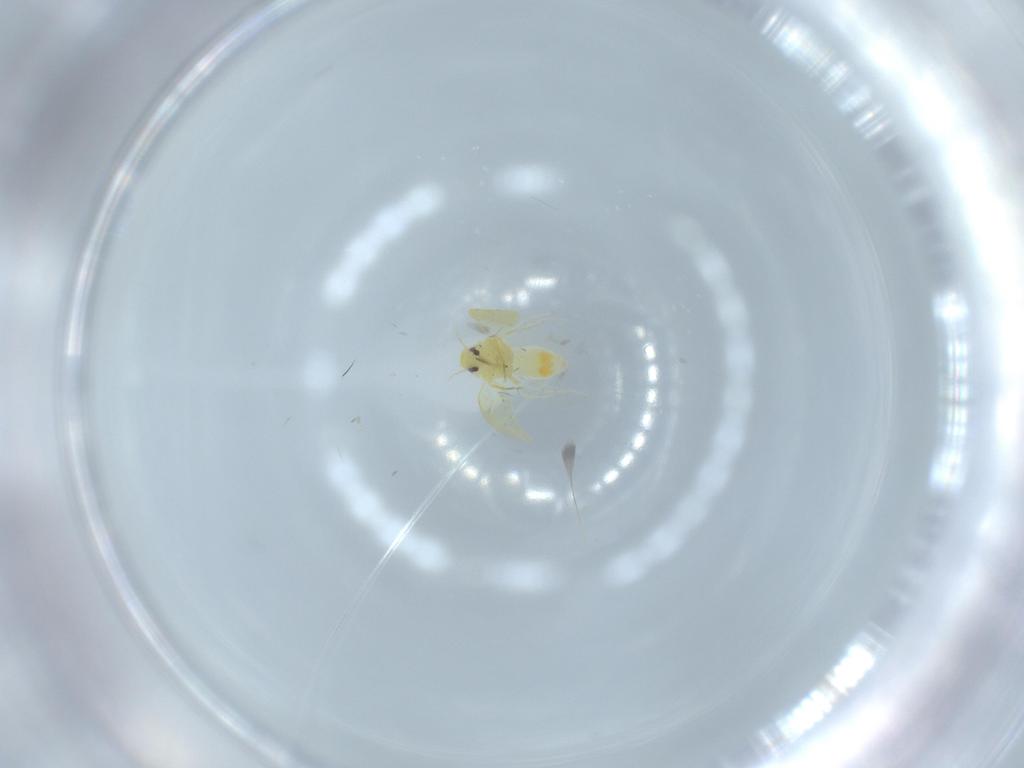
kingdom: Animalia
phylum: Arthropoda
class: Insecta
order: Hemiptera
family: Aleyrodidae
